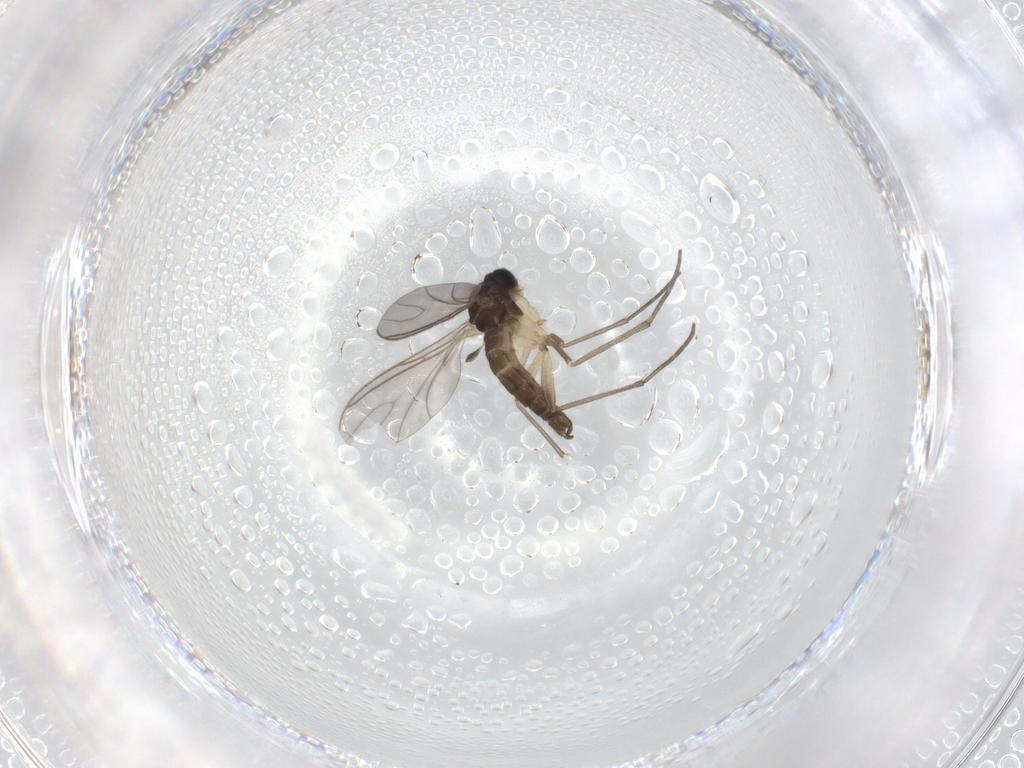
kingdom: Animalia
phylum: Arthropoda
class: Insecta
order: Diptera
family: Phoridae
